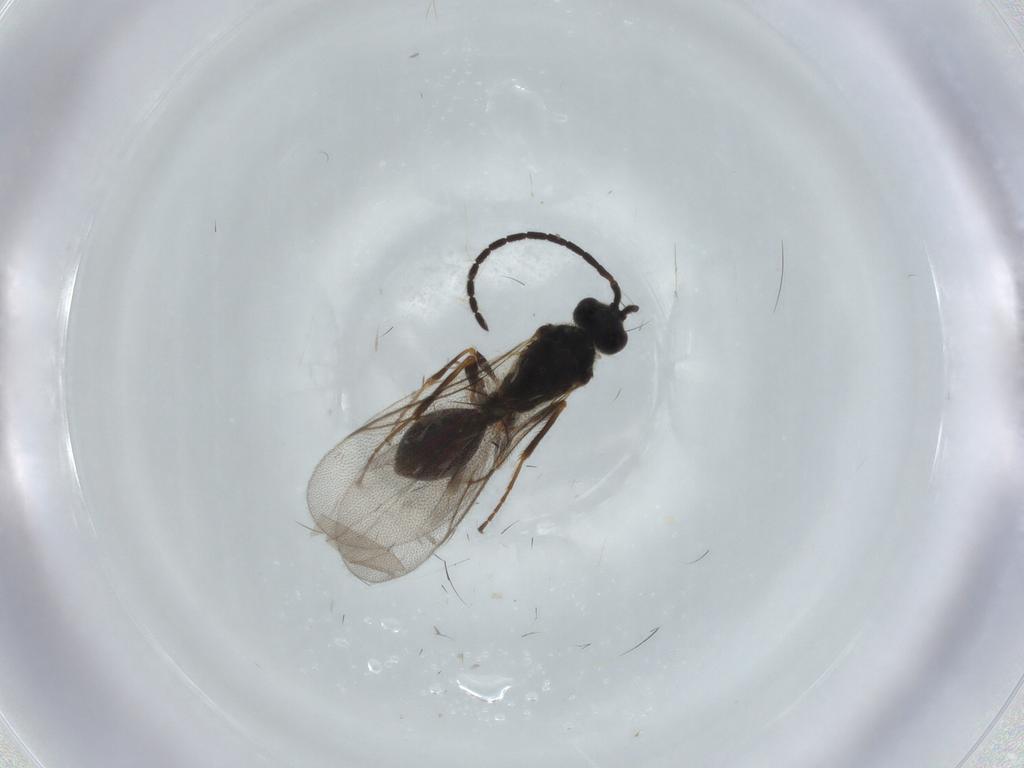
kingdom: Animalia
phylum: Arthropoda
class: Insecta
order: Hymenoptera
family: Diapriidae
